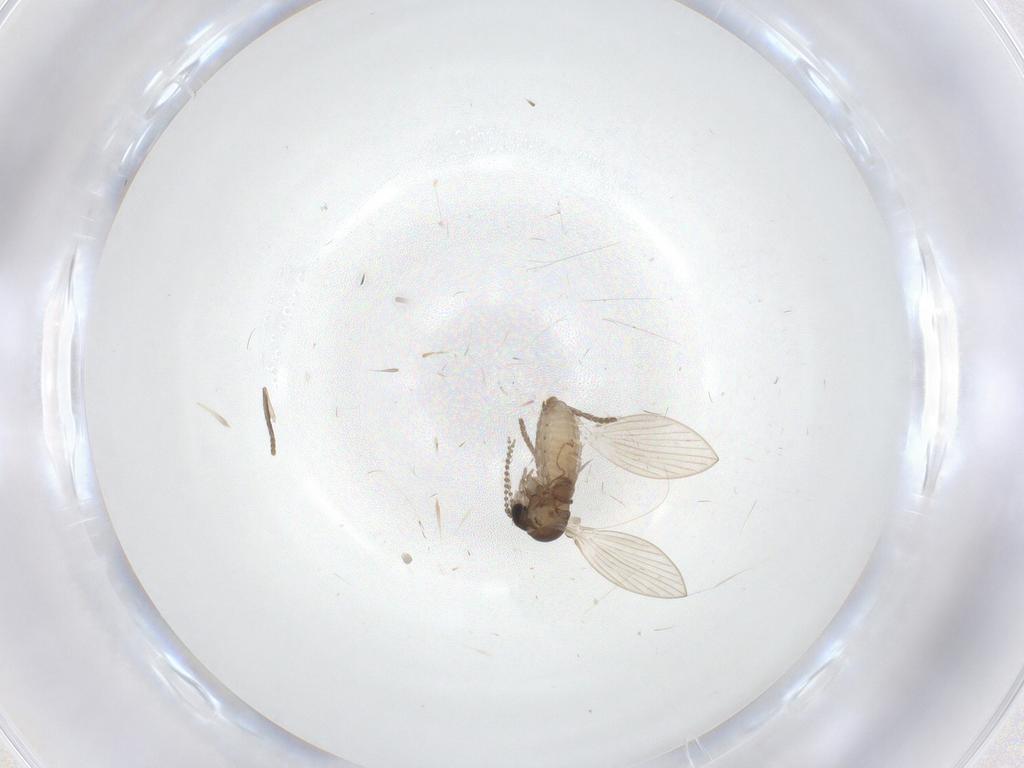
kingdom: Animalia
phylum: Arthropoda
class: Insecta
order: Diptera
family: Psychodidae
